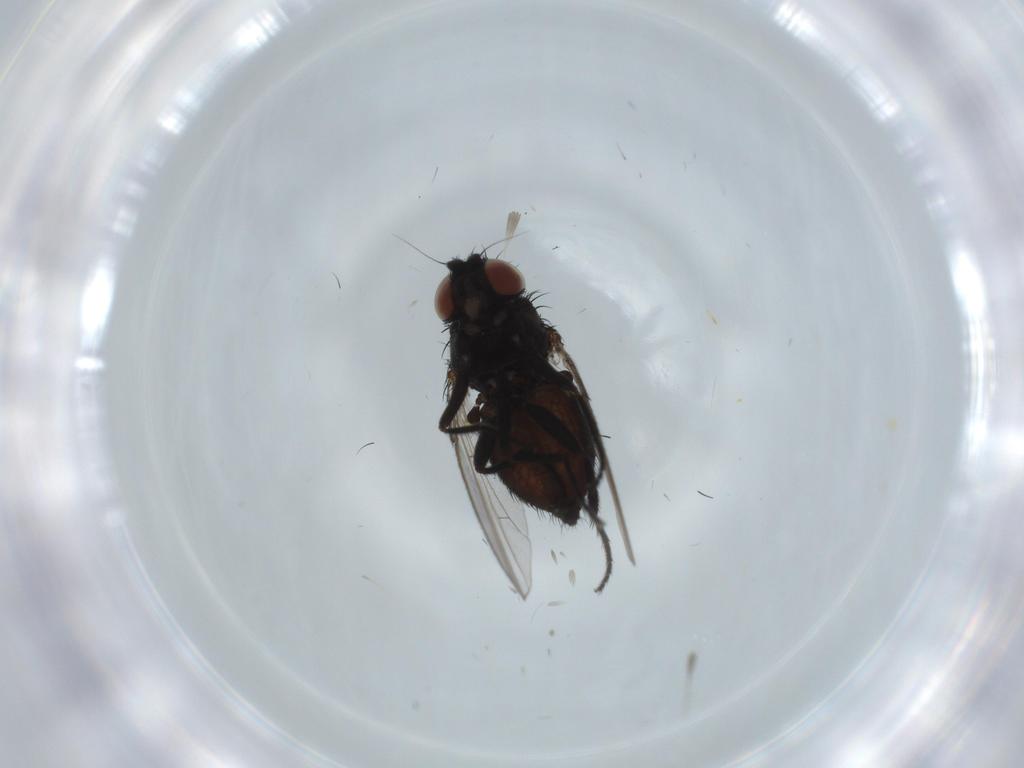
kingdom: Animalia
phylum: Arthropoda
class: Insecta
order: Diptera
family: Milichiidae
